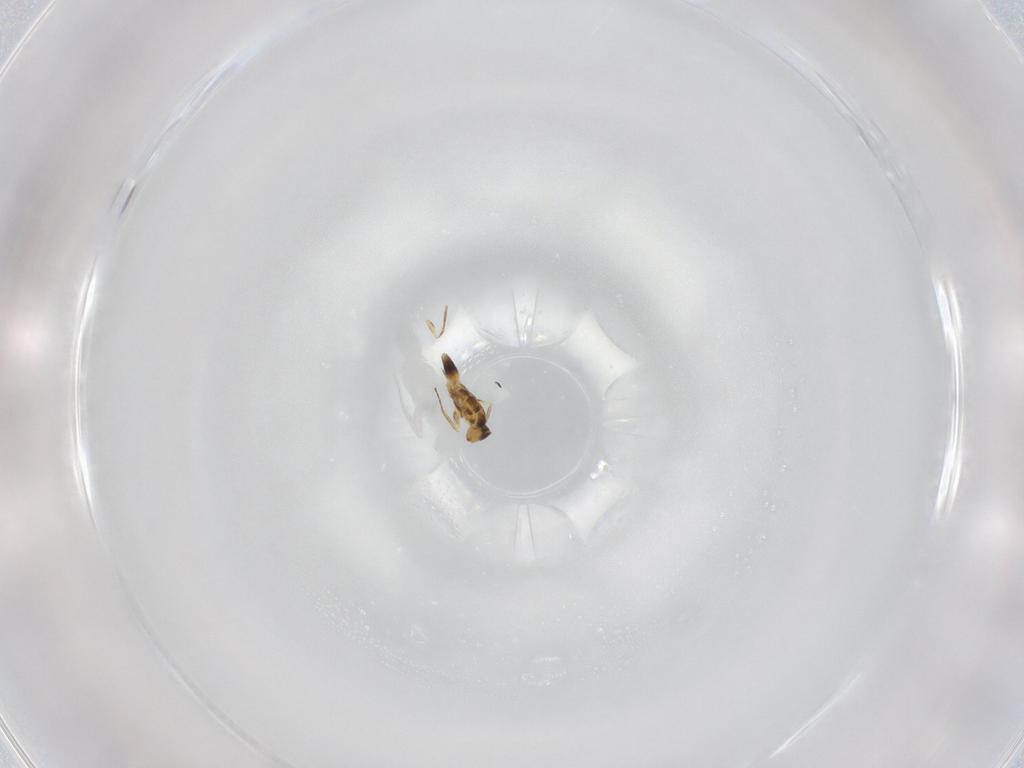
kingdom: Animalia
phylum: Arthropoda
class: Insecta
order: Hymenoptera
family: Mymaridae
